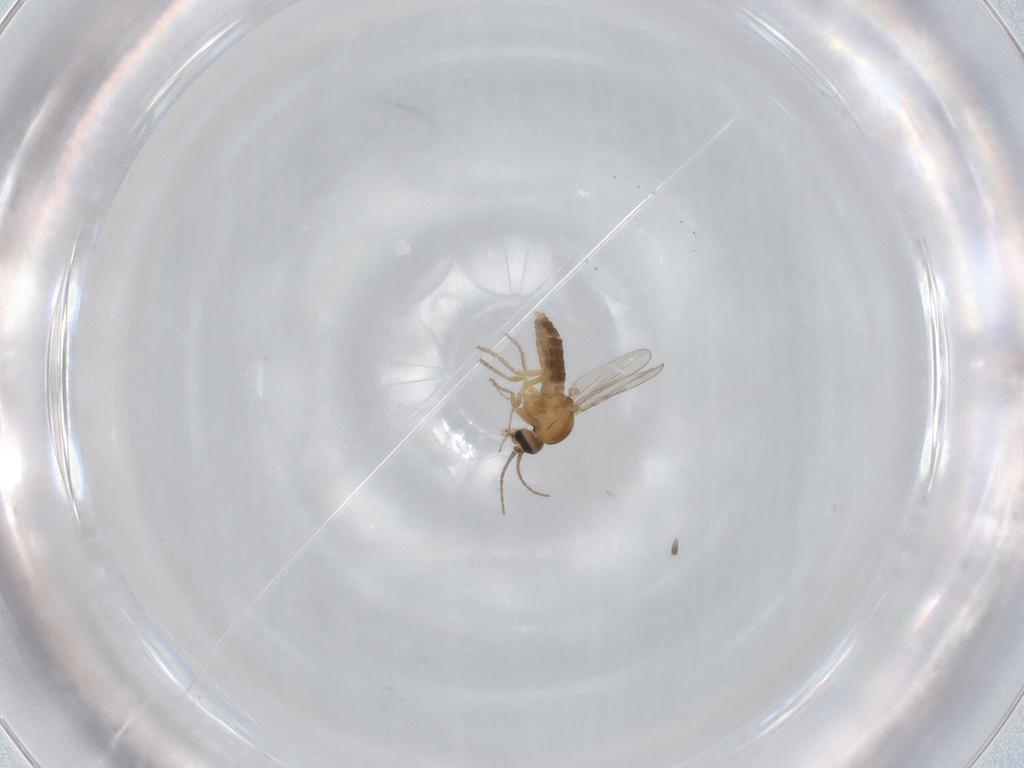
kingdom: Animalia
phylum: Arthropoda
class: Insecta
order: Diptera
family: Ceratopogonidae
